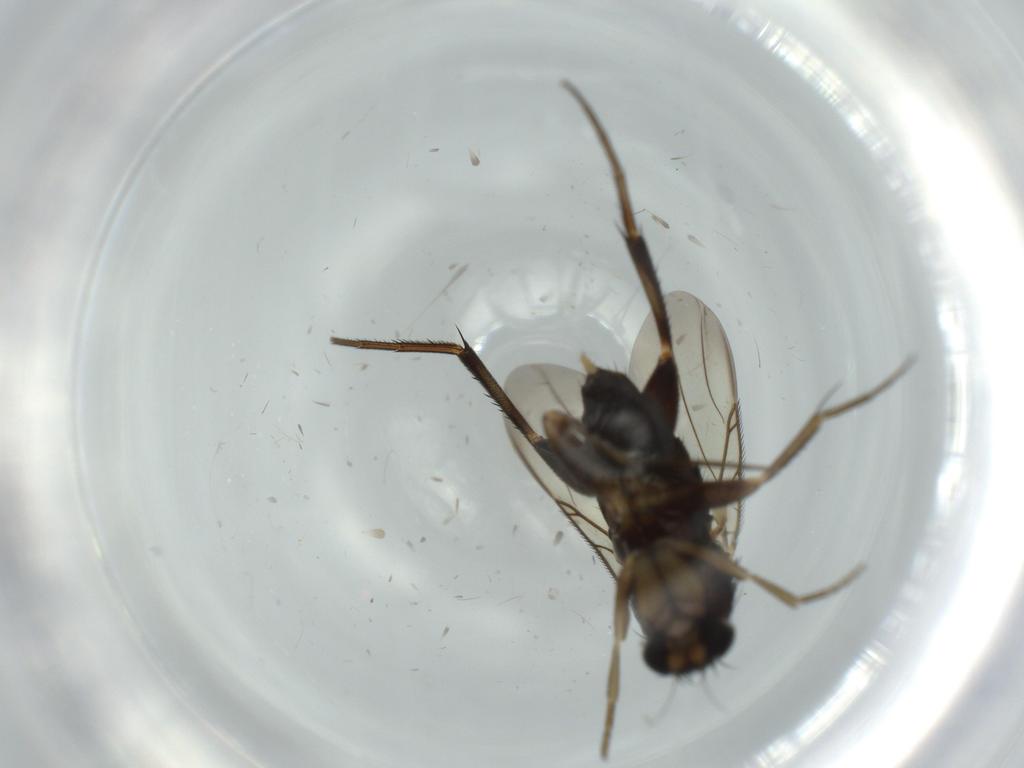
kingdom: Animalia
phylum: Arthropoda
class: Insecta
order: Diptera
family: Phoridae
